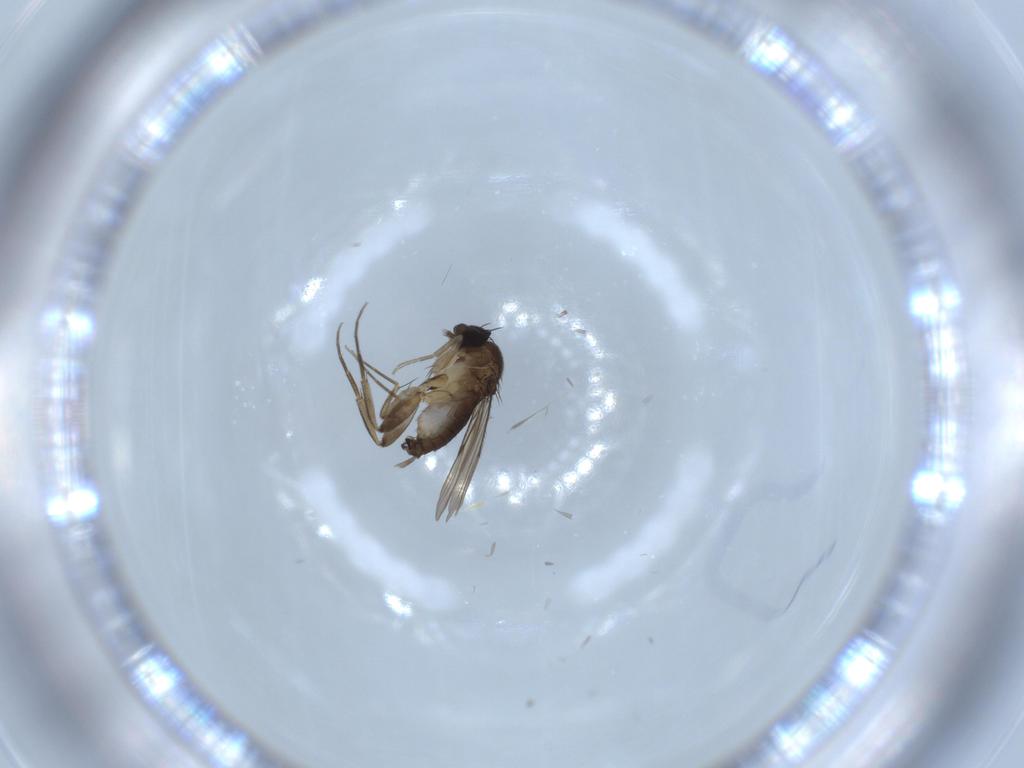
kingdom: Animalia
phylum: Arthropoda
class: Insecta
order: Diptera
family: Phoridae
